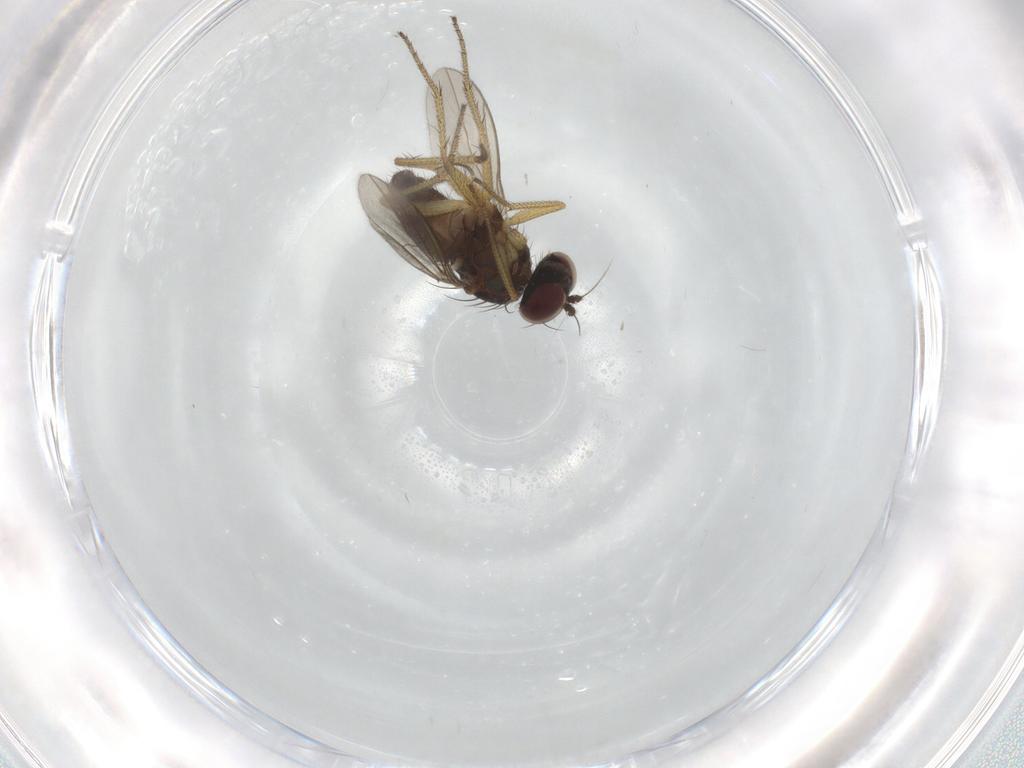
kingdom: Animalia
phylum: Arthropoda
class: Insecta
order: Diptera
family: Dolichopodidae
